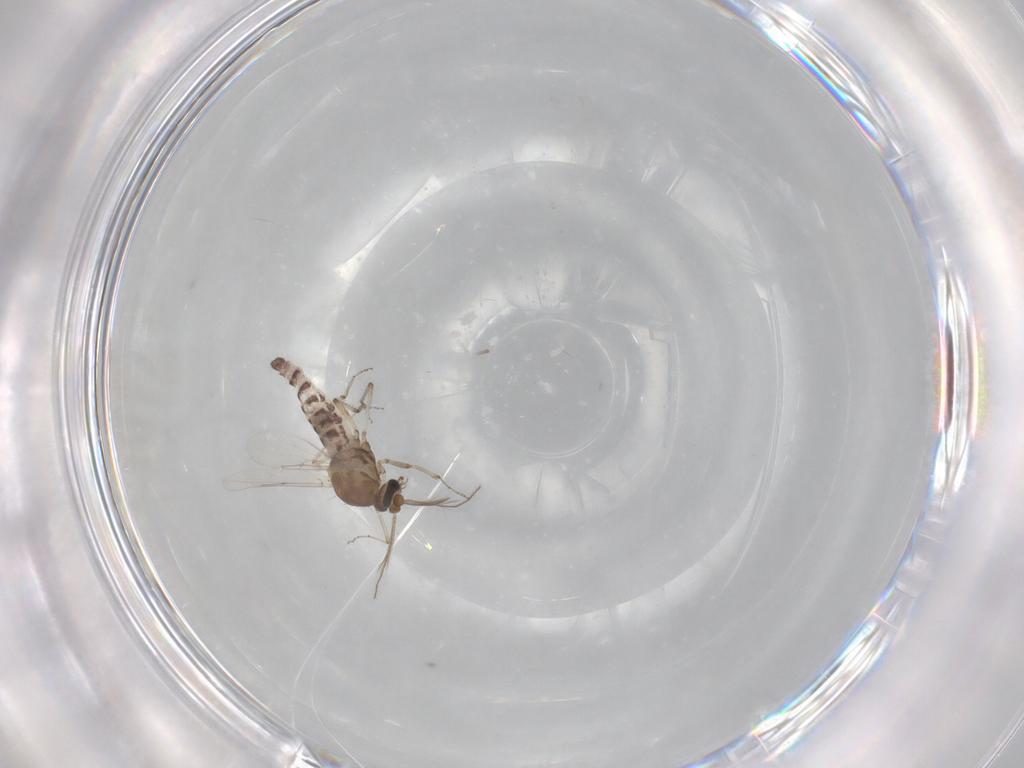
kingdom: Animalia
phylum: Arthropoda
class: Insecta
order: Diptera
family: Ceratopogonidae
